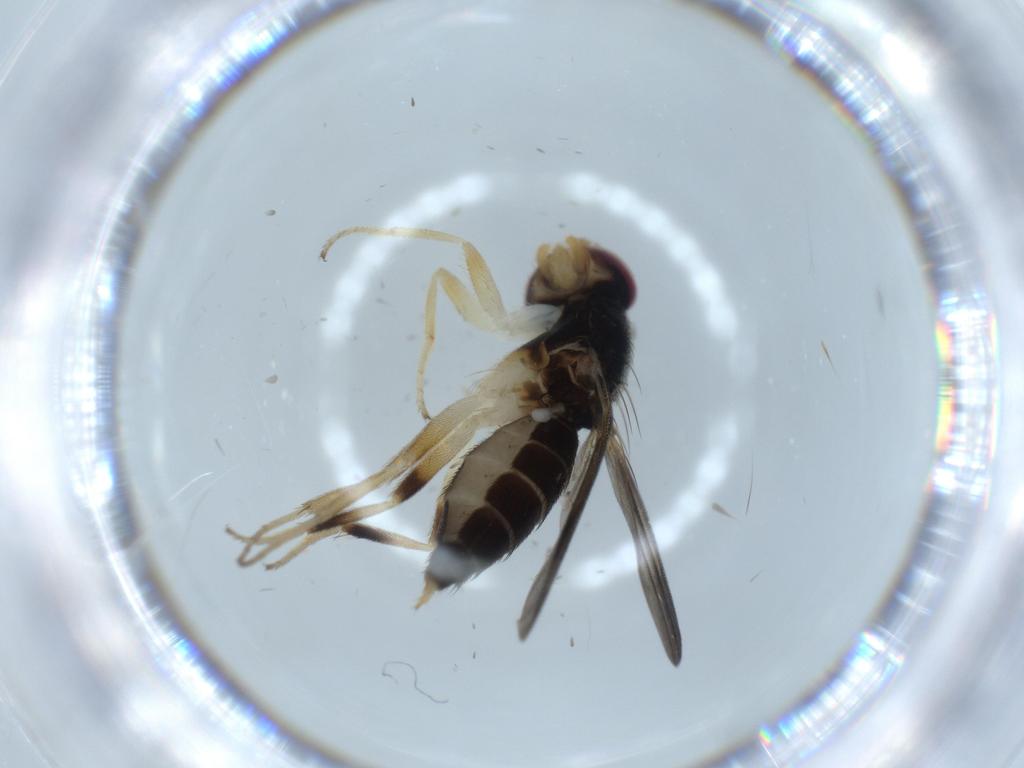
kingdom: Animalia
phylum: Arthropoda
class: Insecta
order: Diptera
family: Clusiidae
